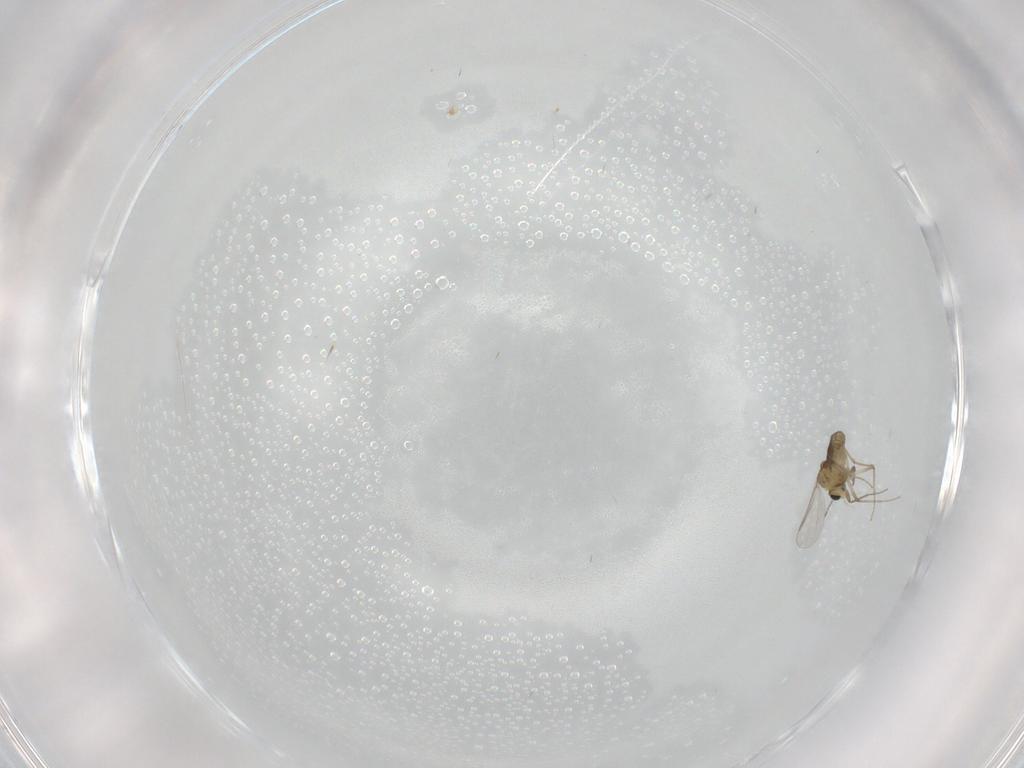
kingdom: Animalia
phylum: Arthropoda
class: Insecta
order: Diptera
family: Chironomidae
